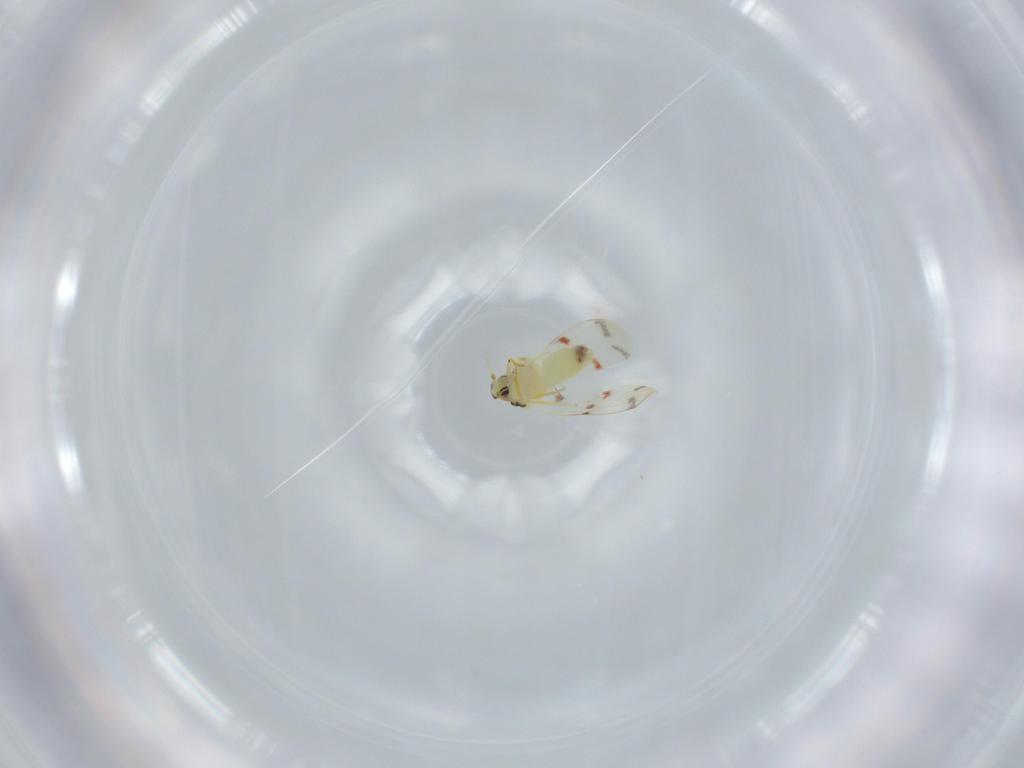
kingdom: Animalia
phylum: Arthropoda
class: Insecta
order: Hemiptera
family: Aleyrodidae
